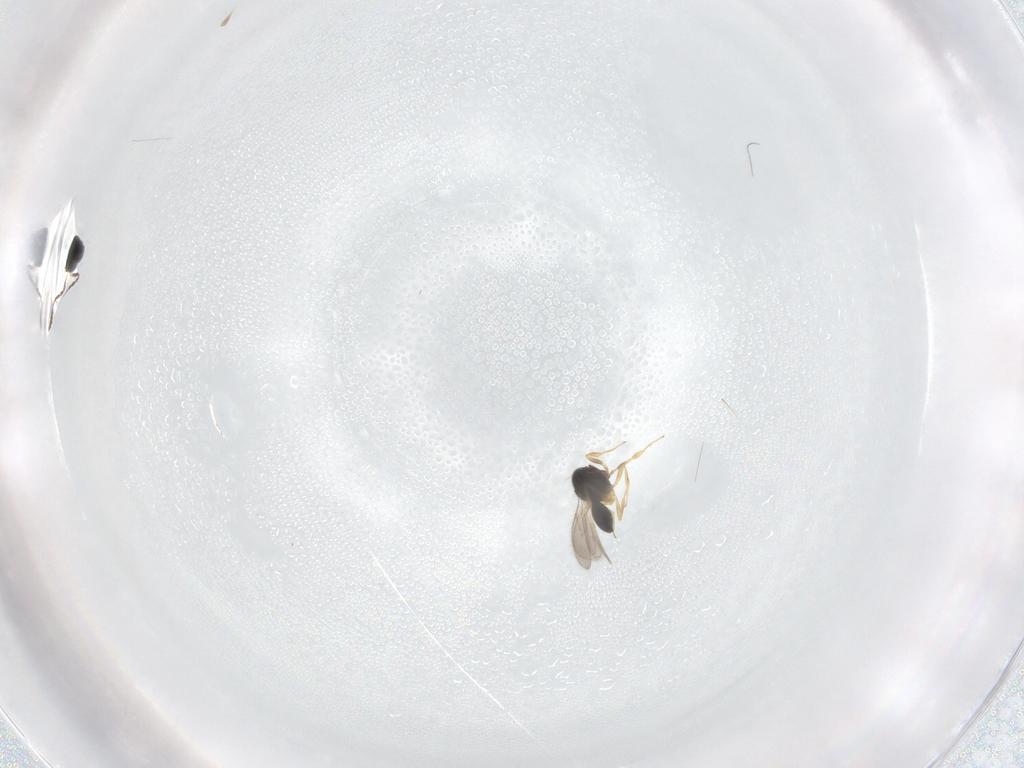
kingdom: Animalia
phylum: Arthropoda
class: Insecta
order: Hymenoptera
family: Scelionidae
